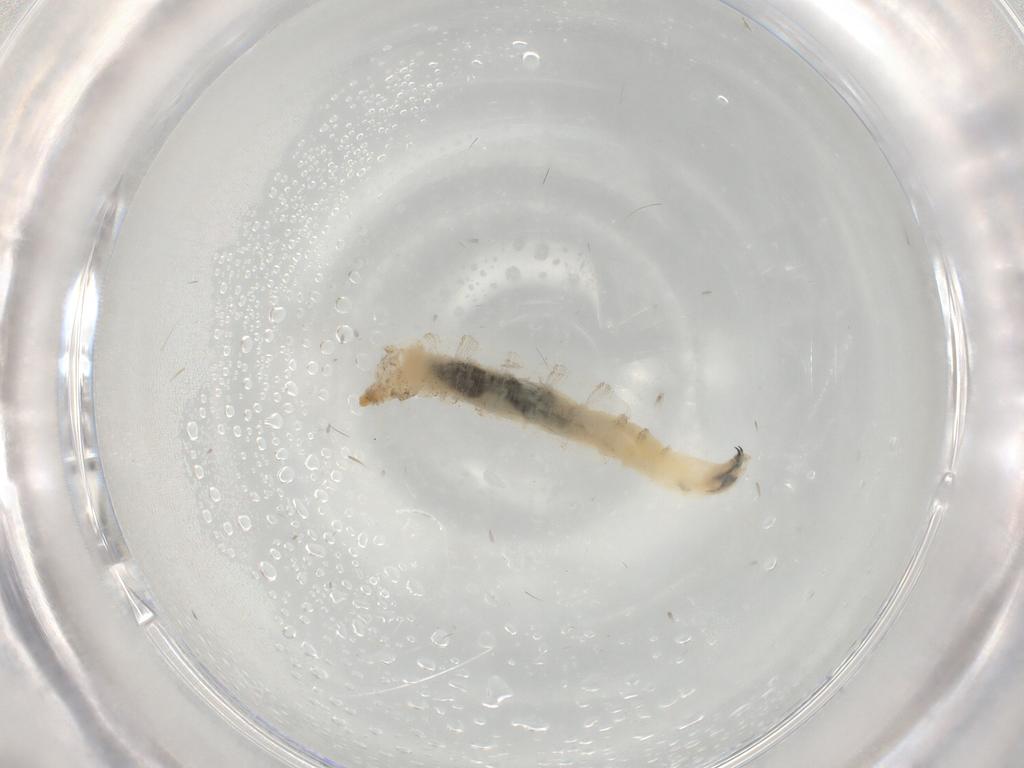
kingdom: Animalia
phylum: Arthropoda
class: Insecta
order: Diptera
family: Drosophilidae
